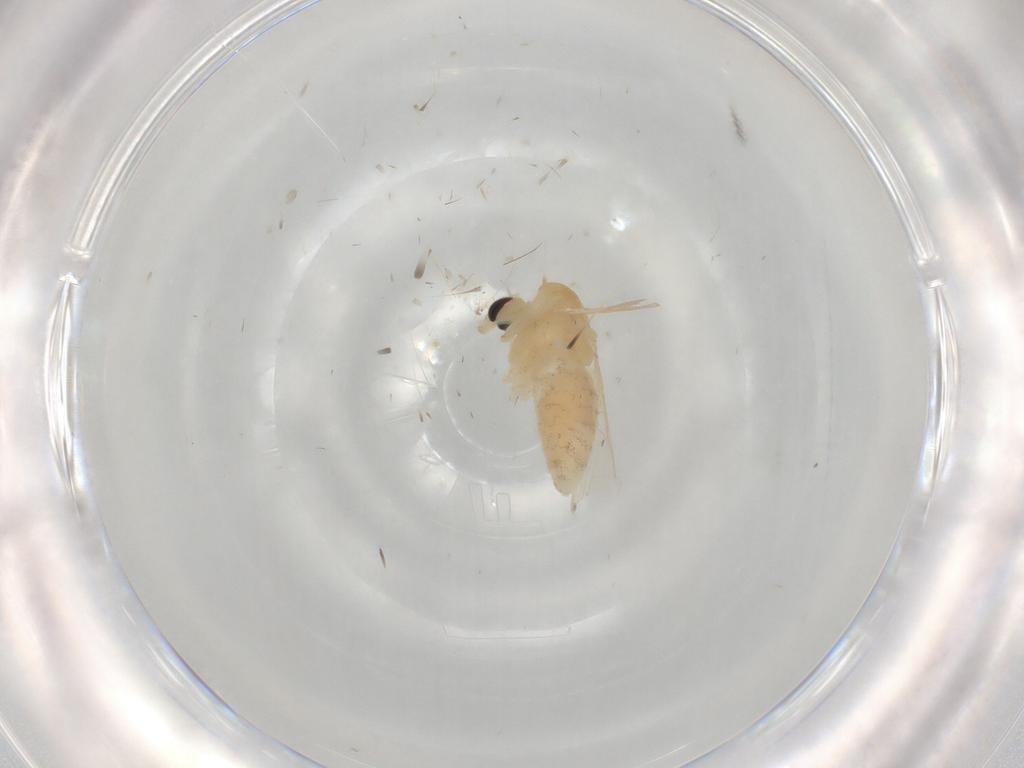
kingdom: Animalia
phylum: Arthropoda
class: Insecta
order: Diptera
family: Chironomidae
